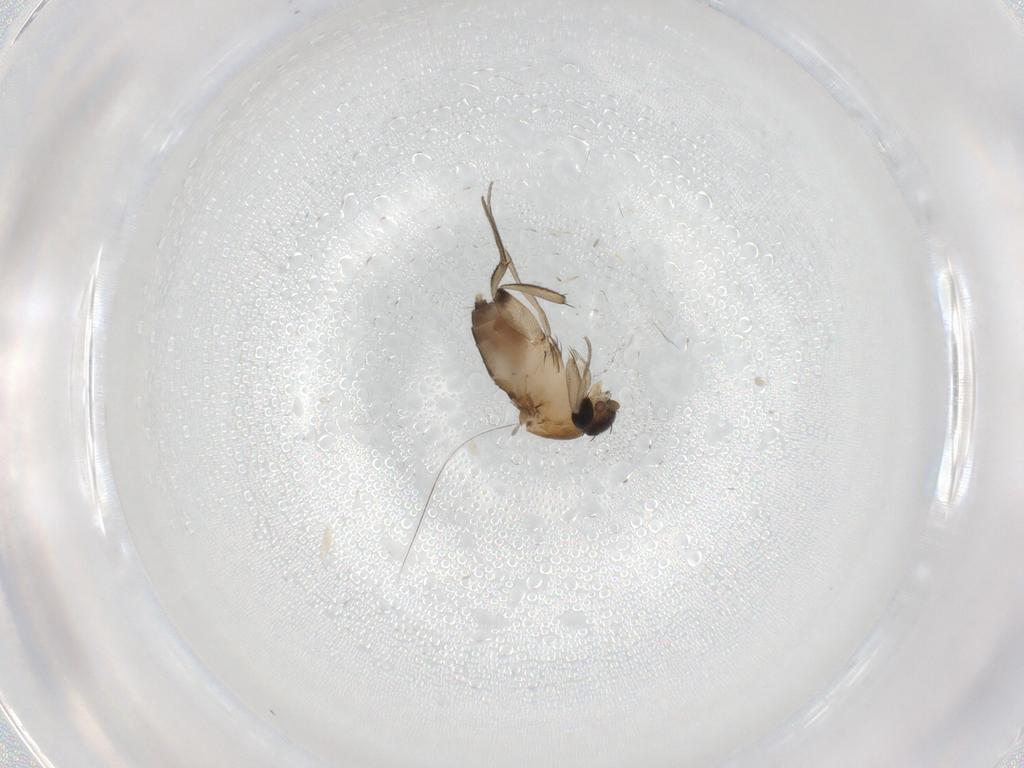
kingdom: Animalia
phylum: Arthropoda
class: Insecta
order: Diptera
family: Phoridae
